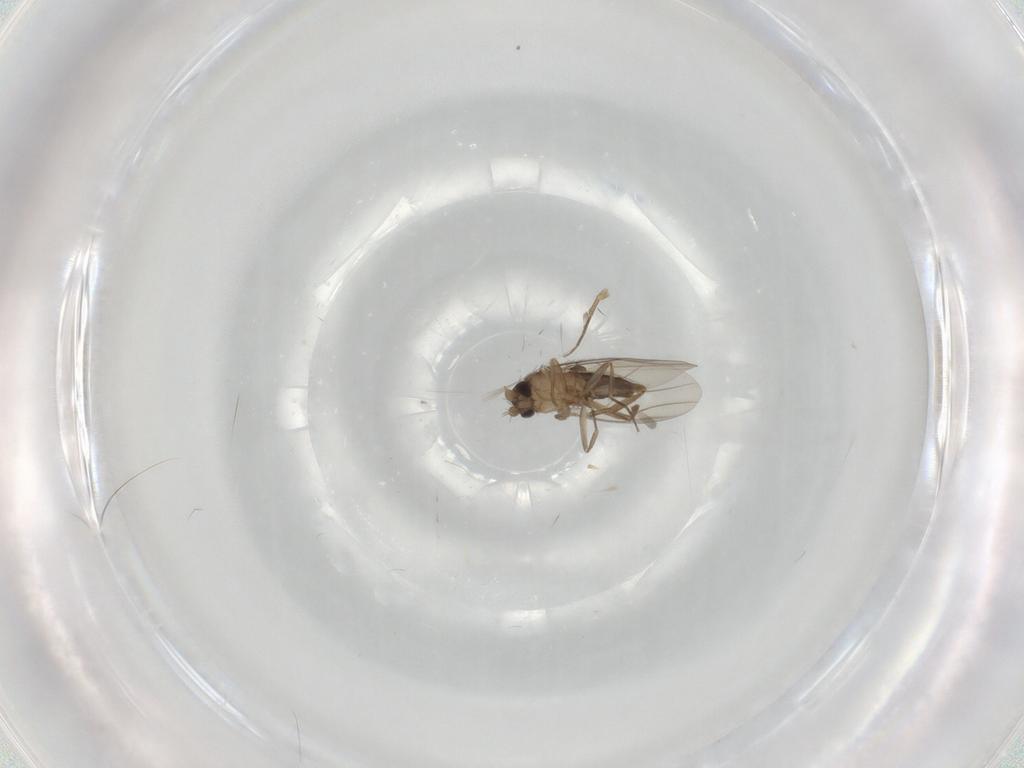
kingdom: Animalia
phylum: Arthropoda
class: Insecta
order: Diptera
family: Phoridae
